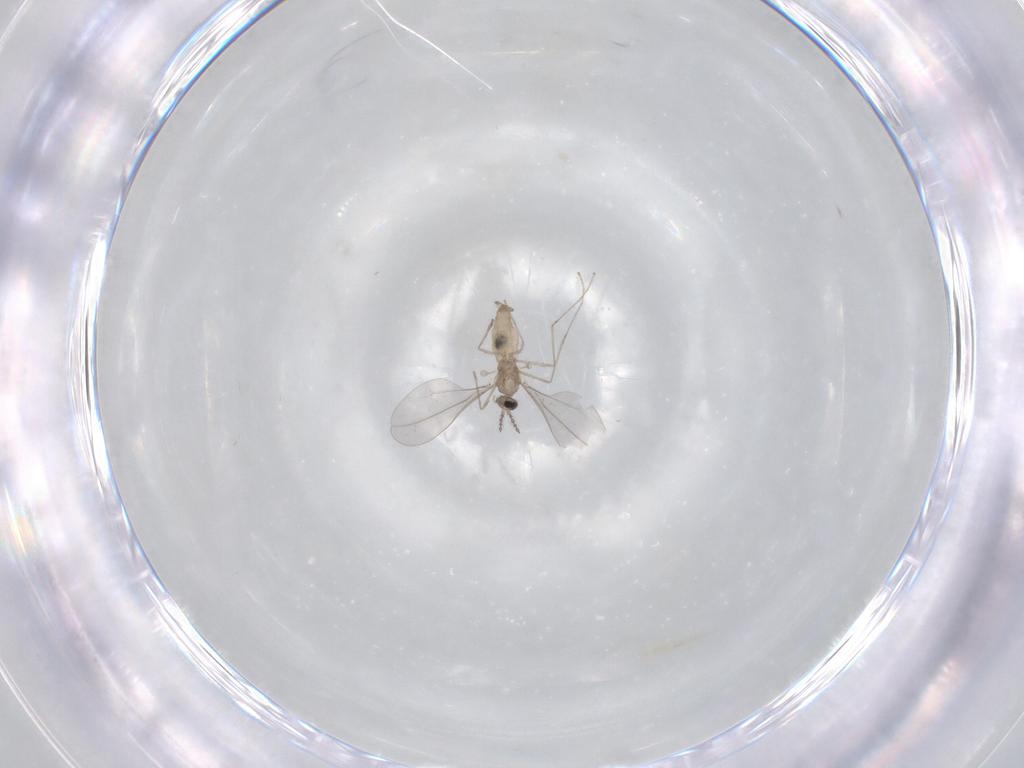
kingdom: Animalia
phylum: Arthropoda
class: Insecta
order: Diptera
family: Cecidomyiidae
